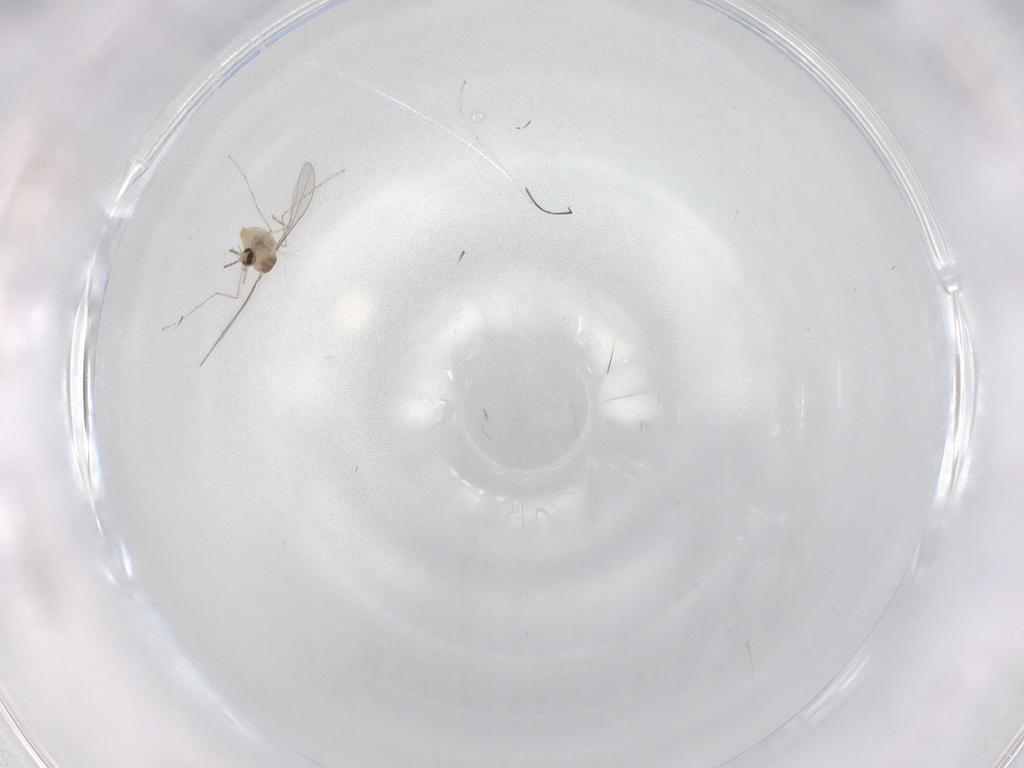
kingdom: Animalia
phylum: Arthropoda
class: Insecta
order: Diptera
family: Cecidomyiidae
